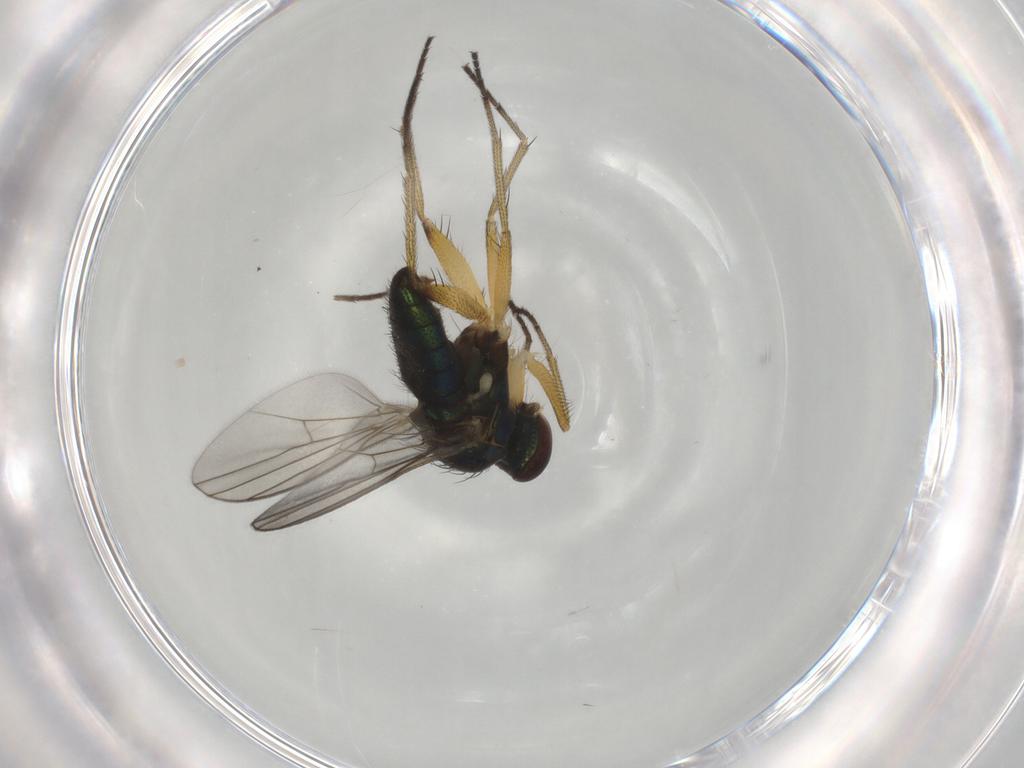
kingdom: Animalia
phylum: Arthropoda
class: Insecta
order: Diptera
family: Dolichopodidae
